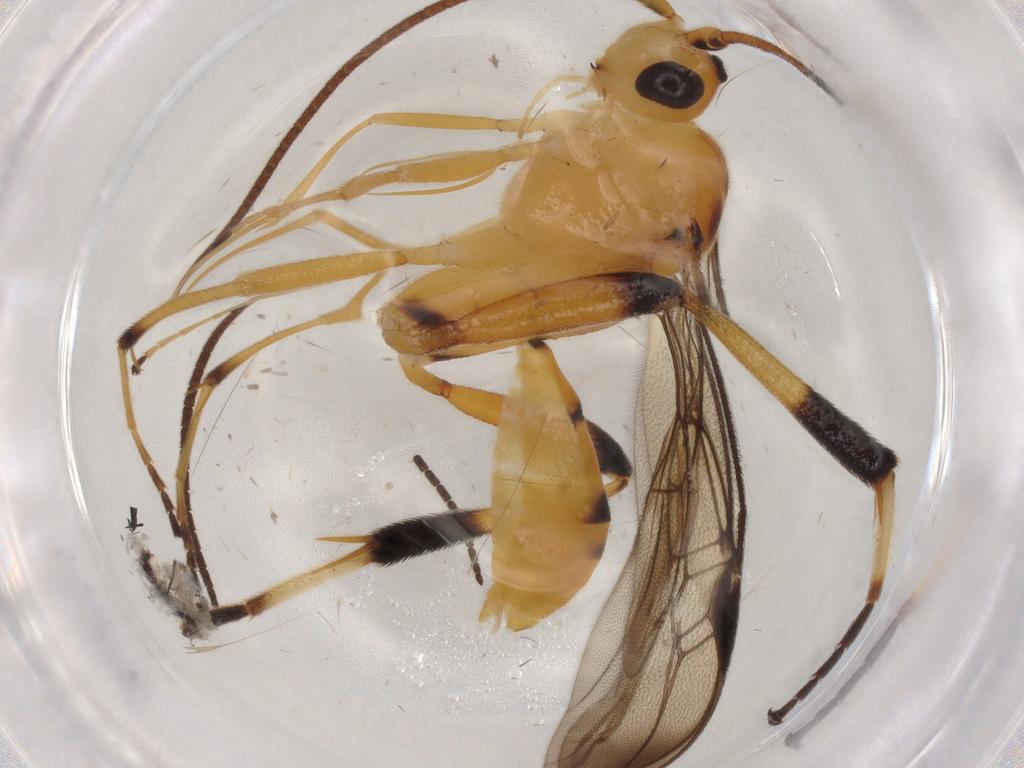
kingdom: Animalia
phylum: Arthropoda
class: Insecta
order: Hymenoptera
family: Braconidae
